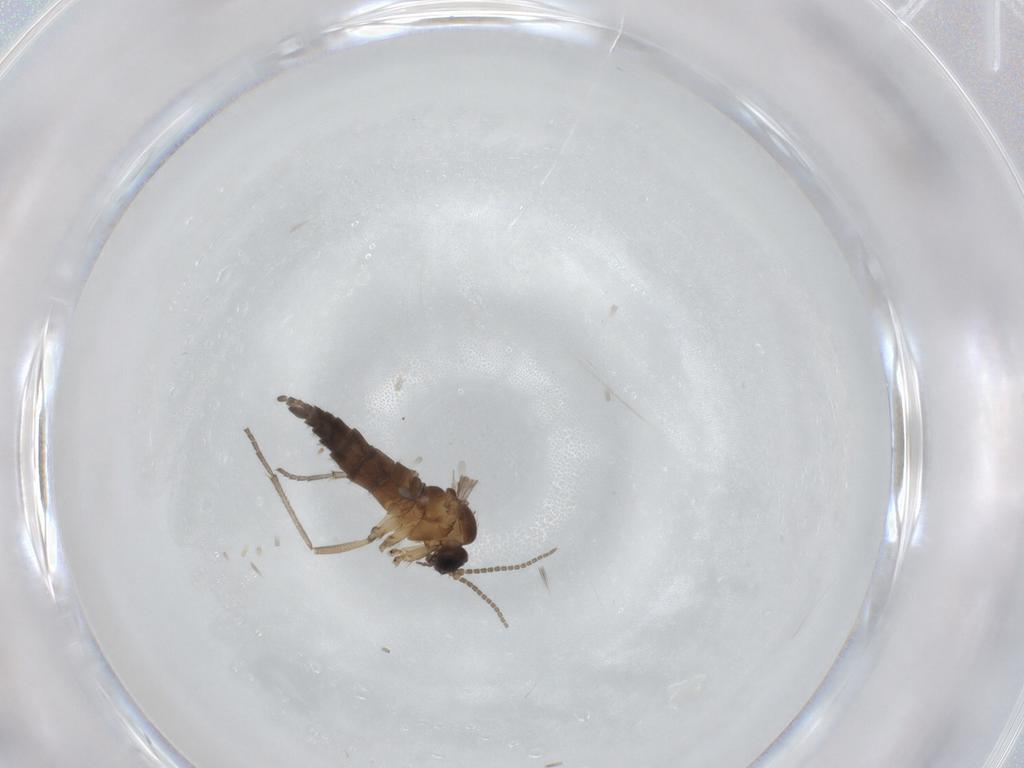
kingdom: Animalia
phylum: Arthropoda
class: Insecta
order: Diptera
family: Sciaridae
